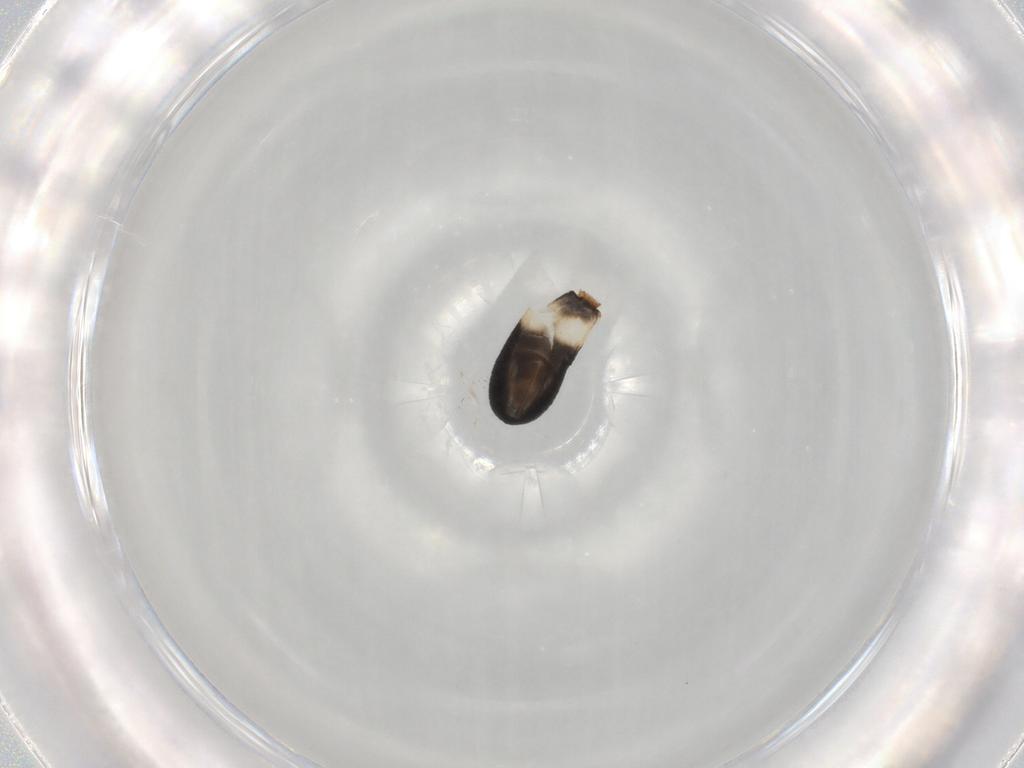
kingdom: Animalia
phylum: Arthropoda
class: Insecta
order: Hymenoptera
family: Braconidae
